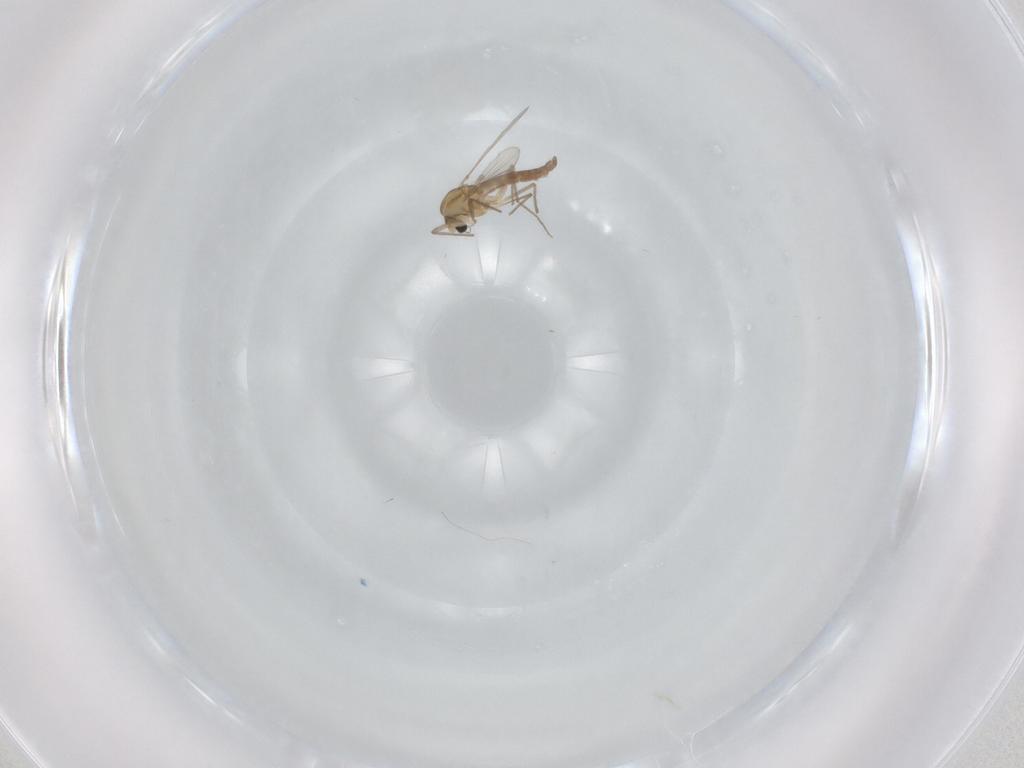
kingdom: Animalia
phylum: Arthropoda
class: Insecta
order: Diptera
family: Chironomidae
